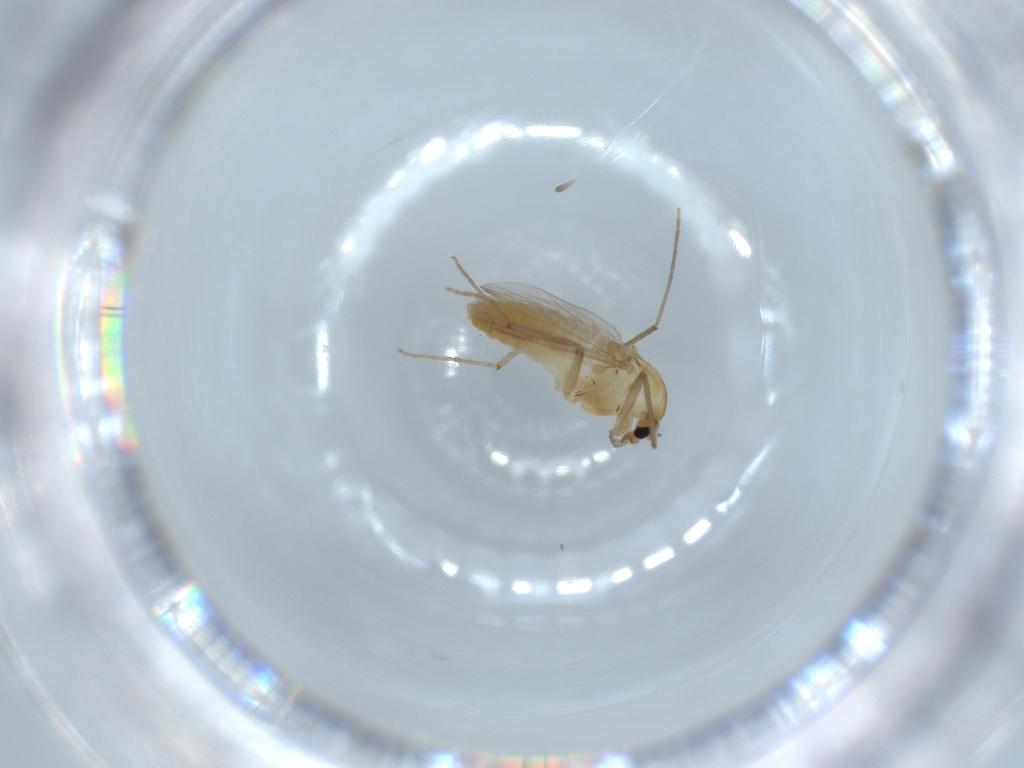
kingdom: Animalia
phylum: Arthropoda
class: Insecta
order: Diptera
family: Chironomidae
